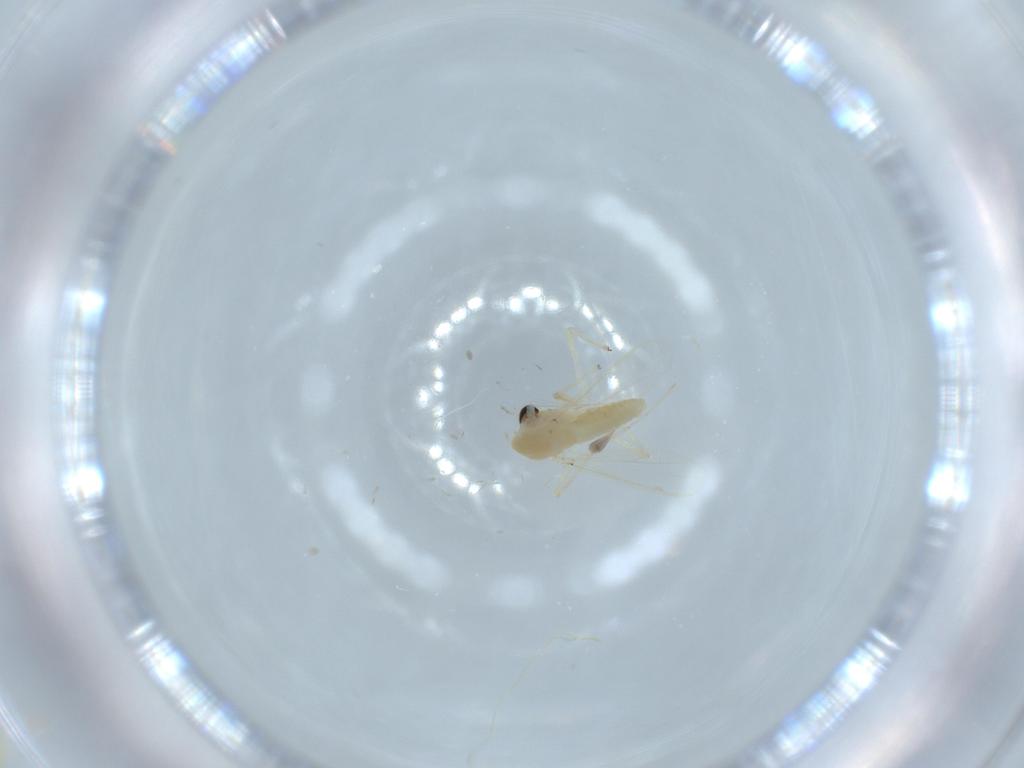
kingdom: Animalia
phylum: Arthropoda
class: Insecta
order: Diptera
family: Chironomidae
